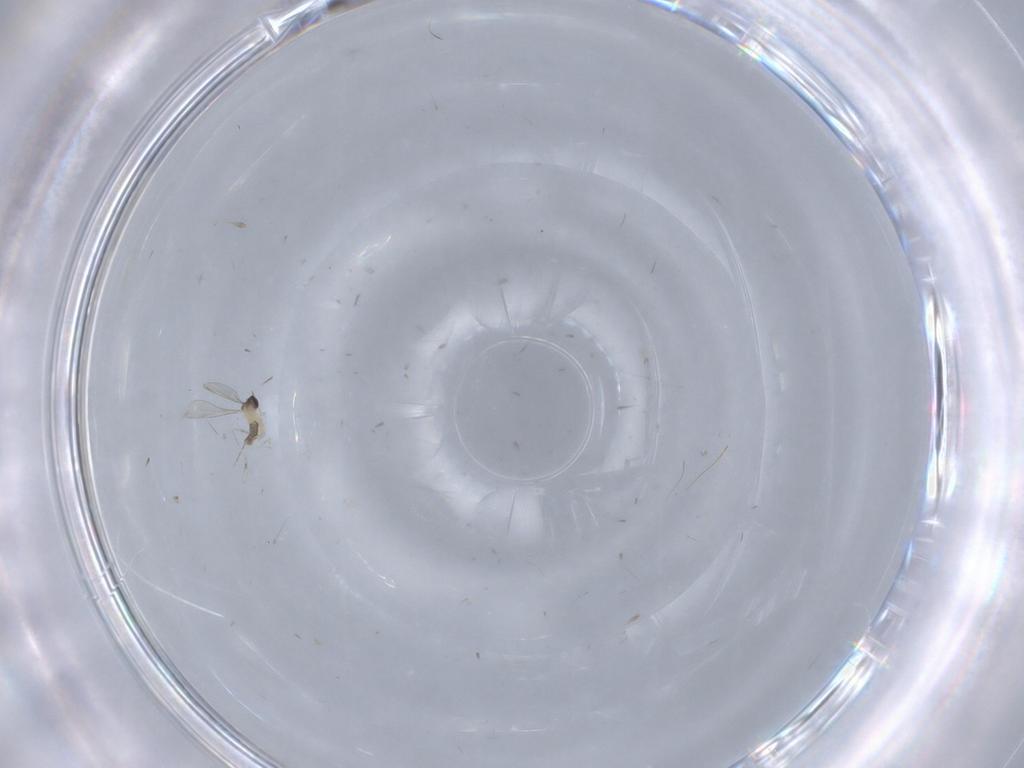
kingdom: Animalia
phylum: Arthropoda
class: Insecta
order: Diptera
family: Cecidomyiidae
